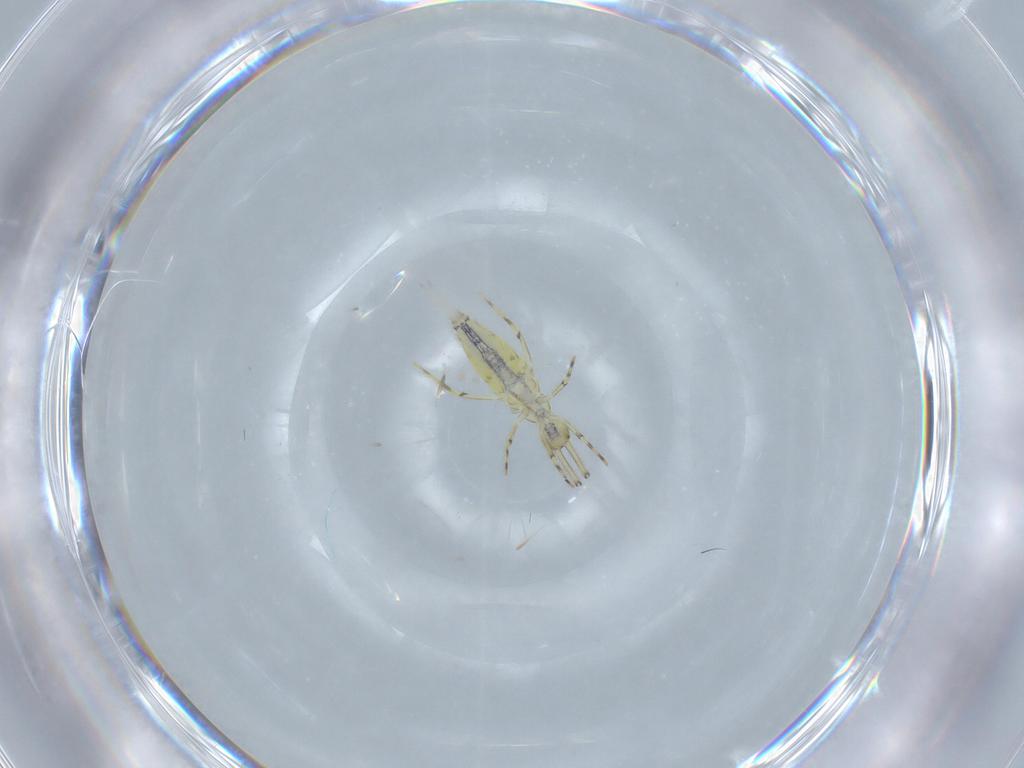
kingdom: Animalia
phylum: Arthropoda
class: Collembola
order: Entomobryomorpha
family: Paronellidae
